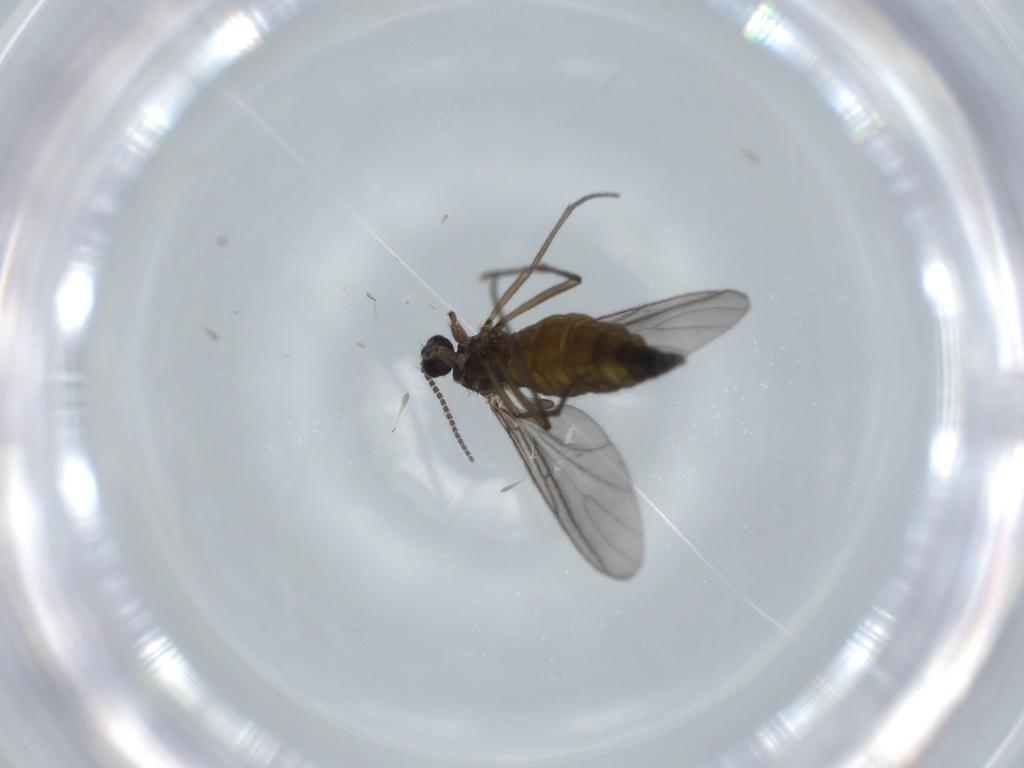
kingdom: Animalia
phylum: Arthropoda
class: Insecta
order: Diptera
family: Sciaridae
